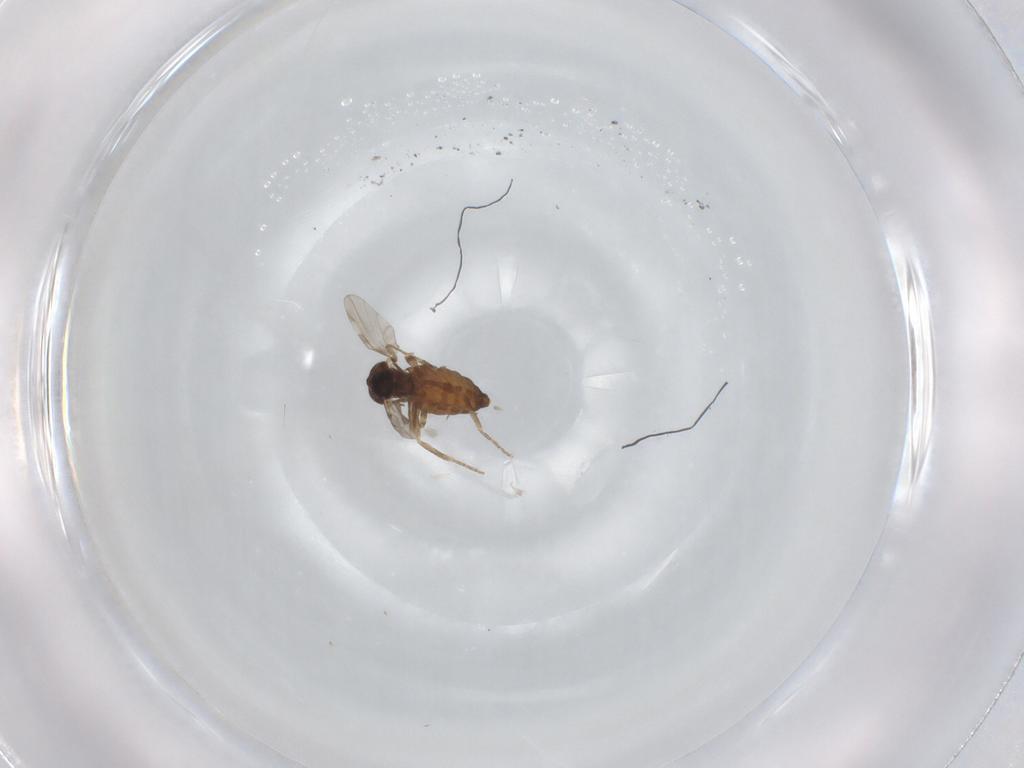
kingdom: Animalia
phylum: Arthropoda
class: Insecta
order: Diptera
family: Ceratopogonidae
